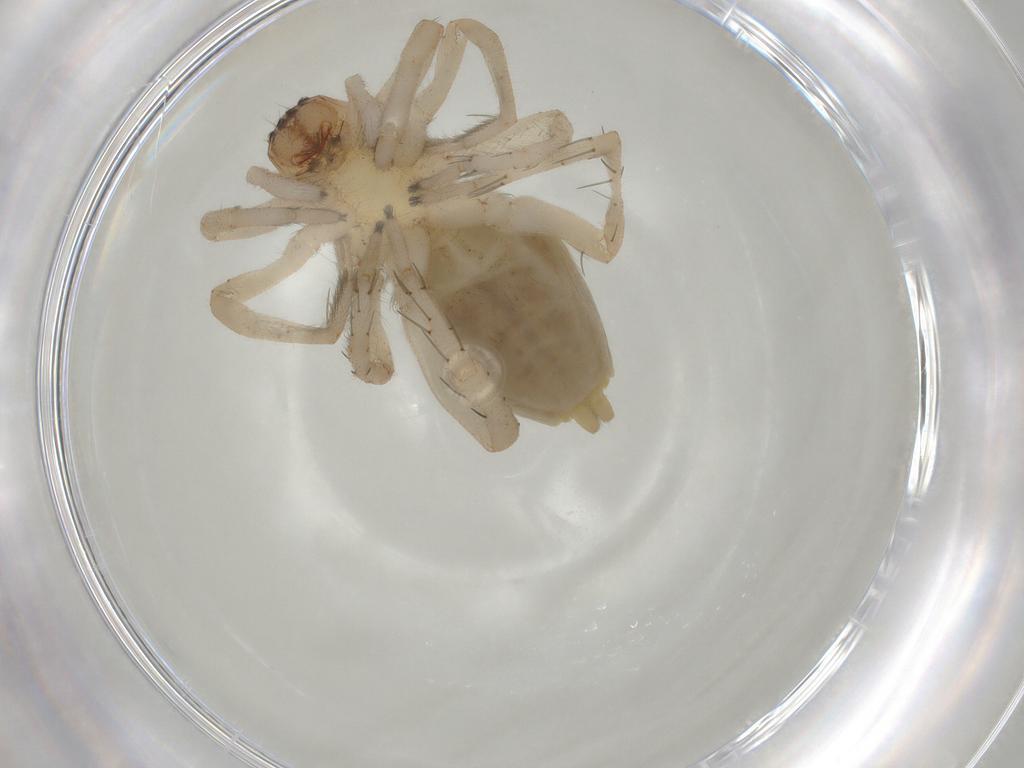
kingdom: Animalia
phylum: Arthropoda
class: Arachnida
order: Araneae
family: Clubionidae
